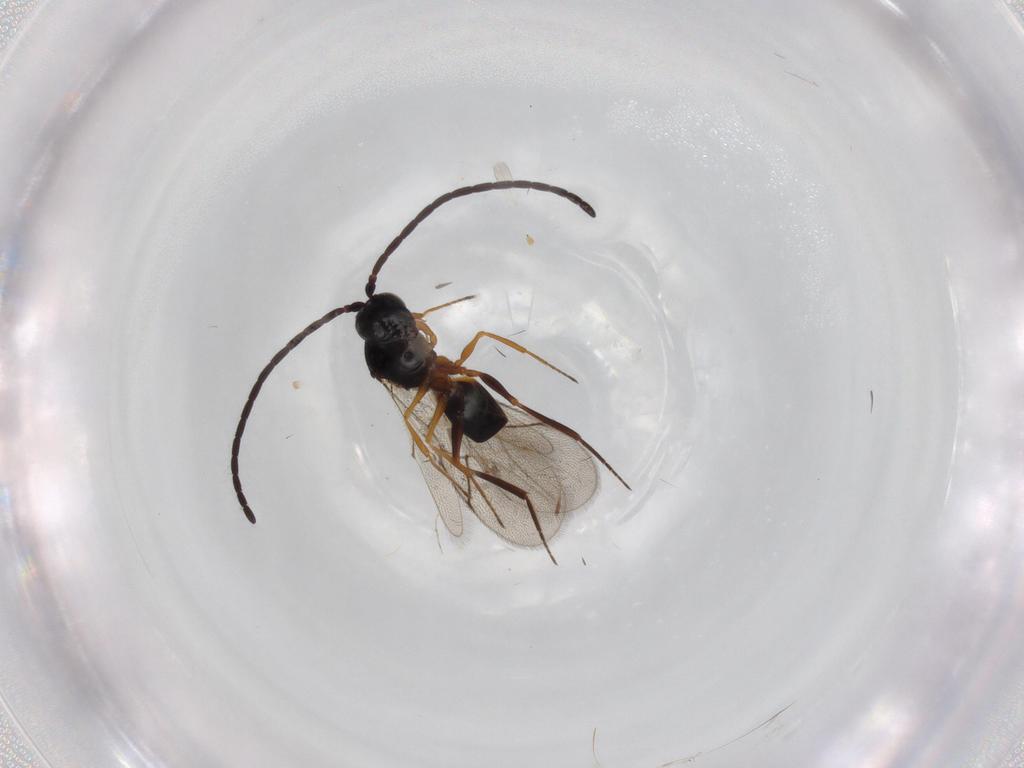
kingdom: Animalia
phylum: Arthropoda
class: Insecta
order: Hymenoptera
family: Figitidae
